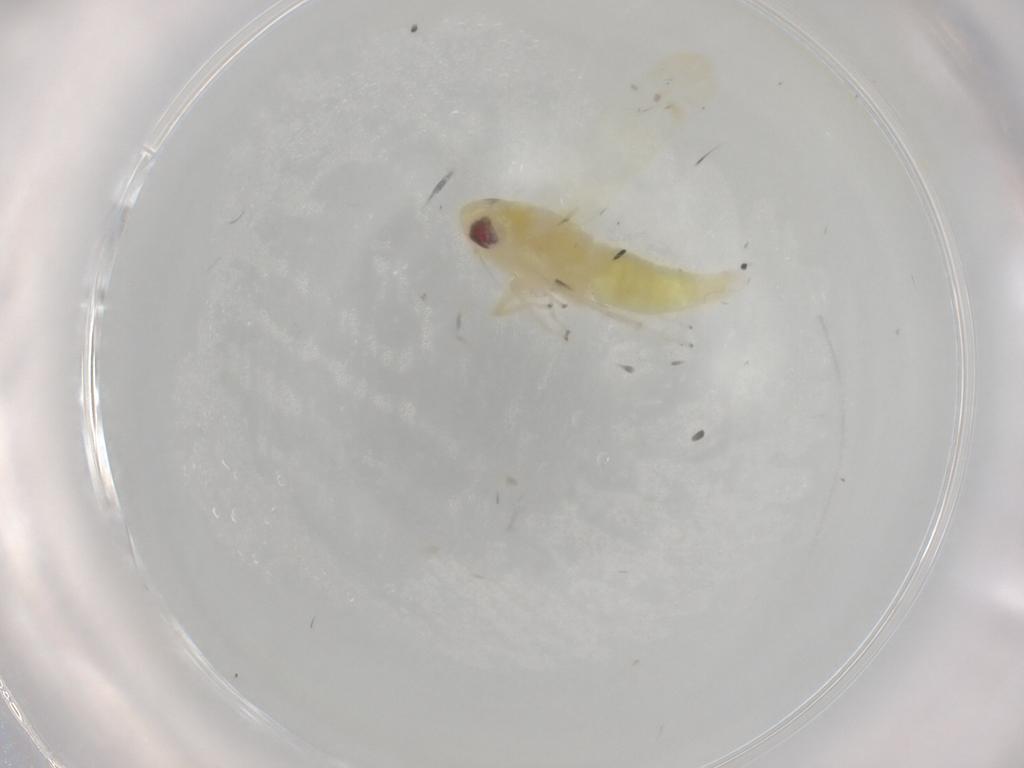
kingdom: Animalia
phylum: Arthropoda
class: Insecta
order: Hemiptera
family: Cicadellidae
